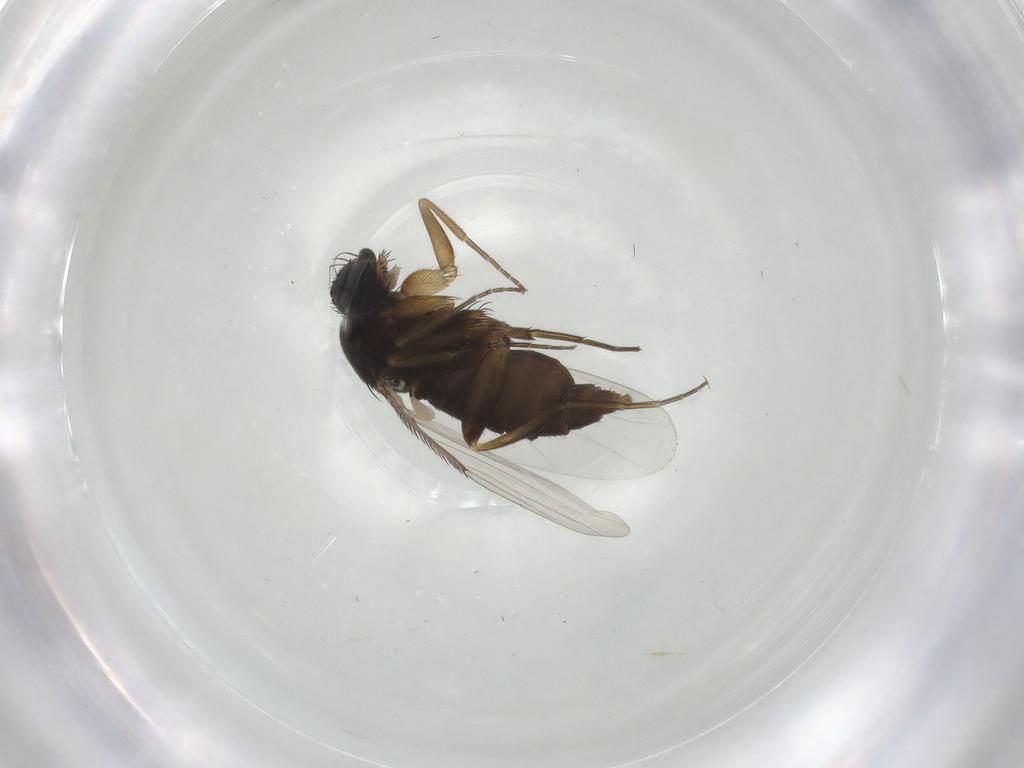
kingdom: Animalia
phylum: Arthropoda
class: Insecta
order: Diptera
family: Phoridae
